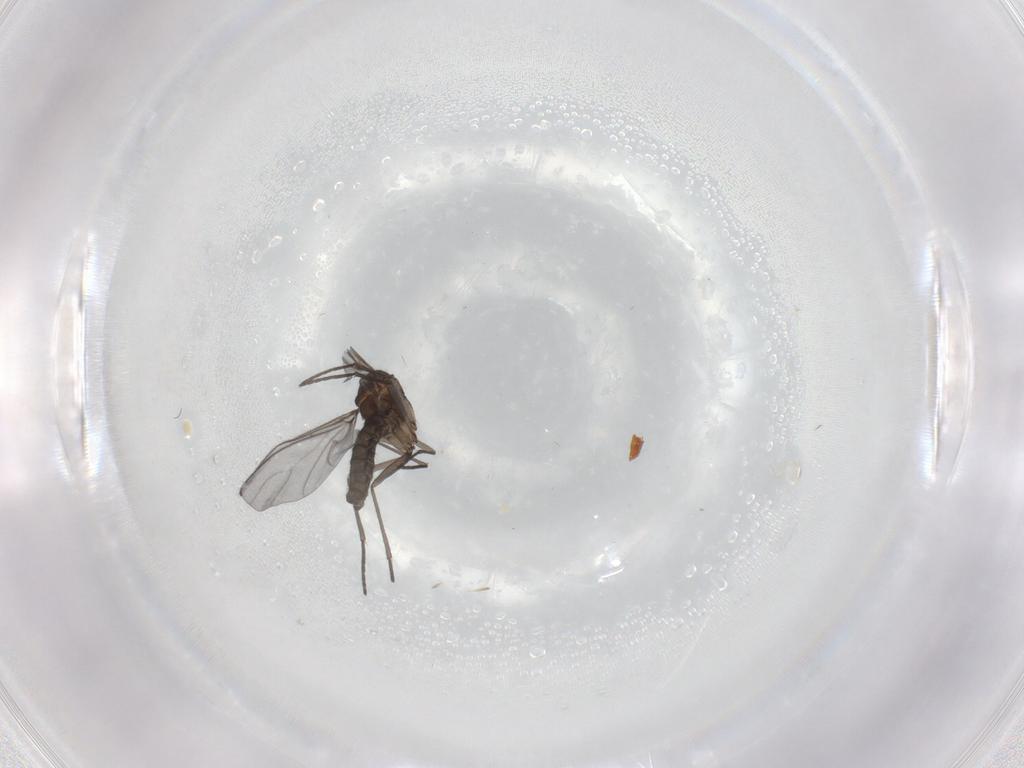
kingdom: Animalia
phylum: Arthropoda
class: Insecta
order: Diptera
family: Sciaridae
